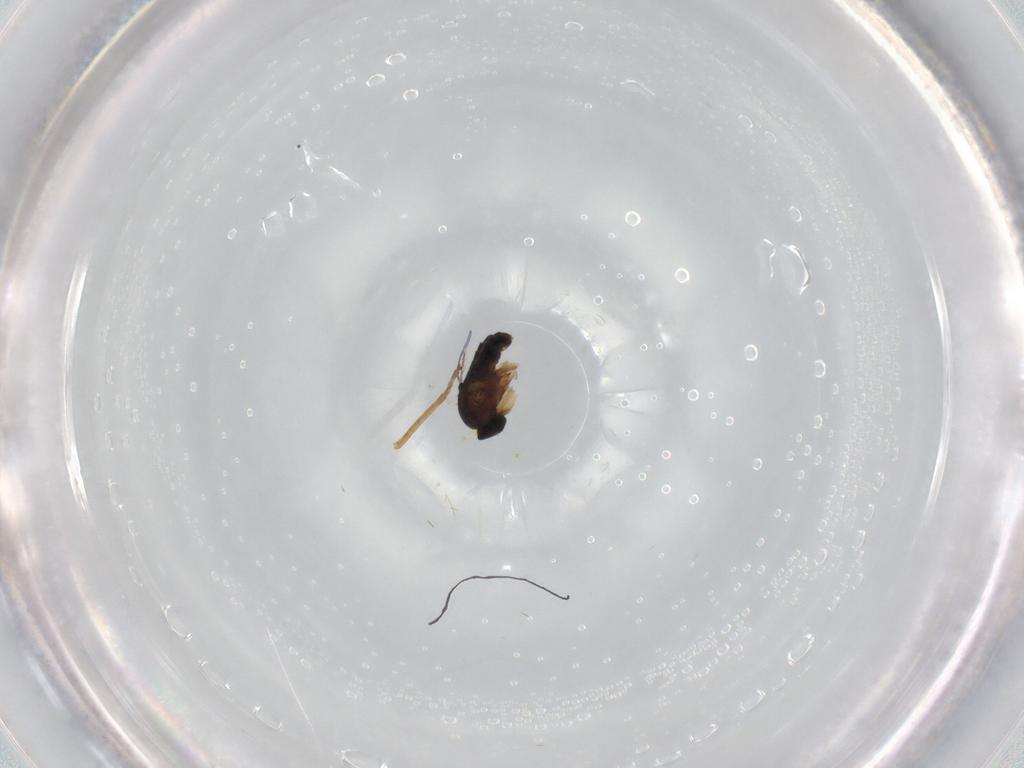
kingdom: Animalia
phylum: Arthropoda
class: Insecta
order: Diptera
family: Phoridae
